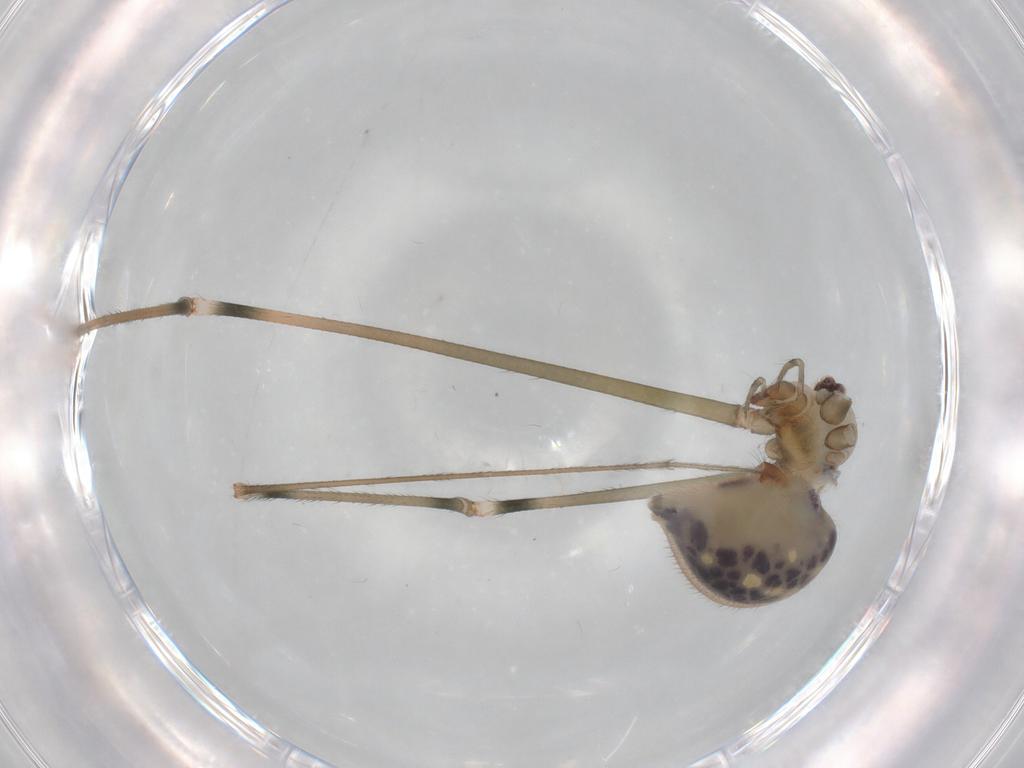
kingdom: Animalia
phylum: Arthropoda
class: Arachnida
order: Araneae
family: Pholcidae
